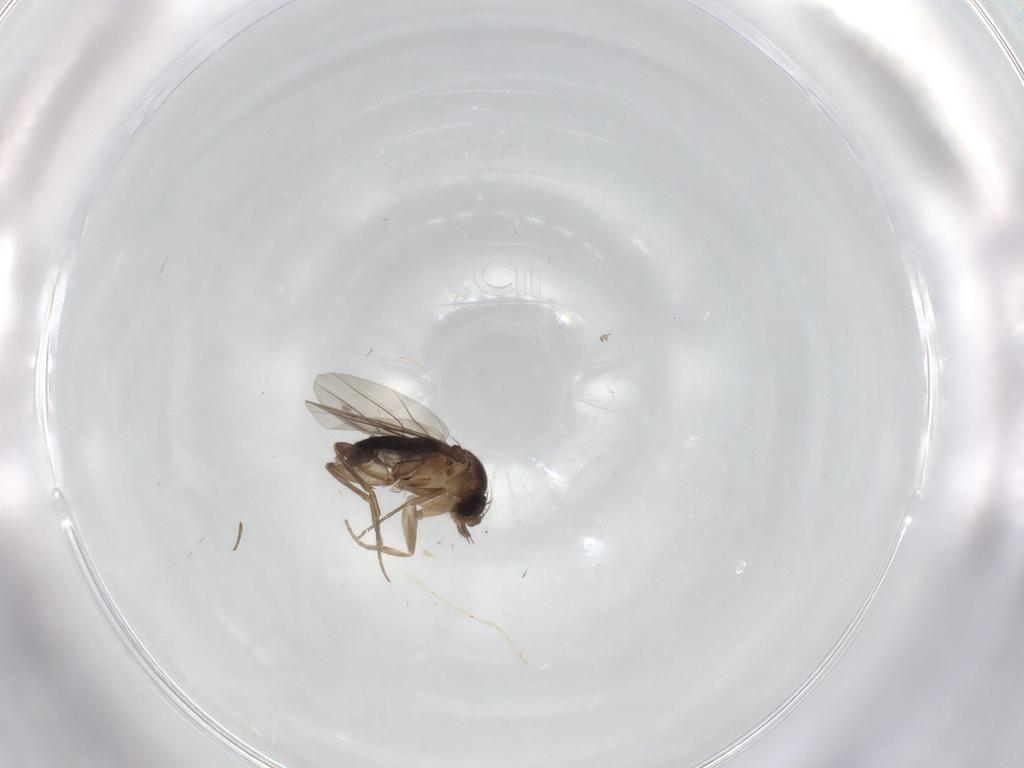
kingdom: Animalia
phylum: Arthropoda
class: Insecta
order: Diptera
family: Phoridae
